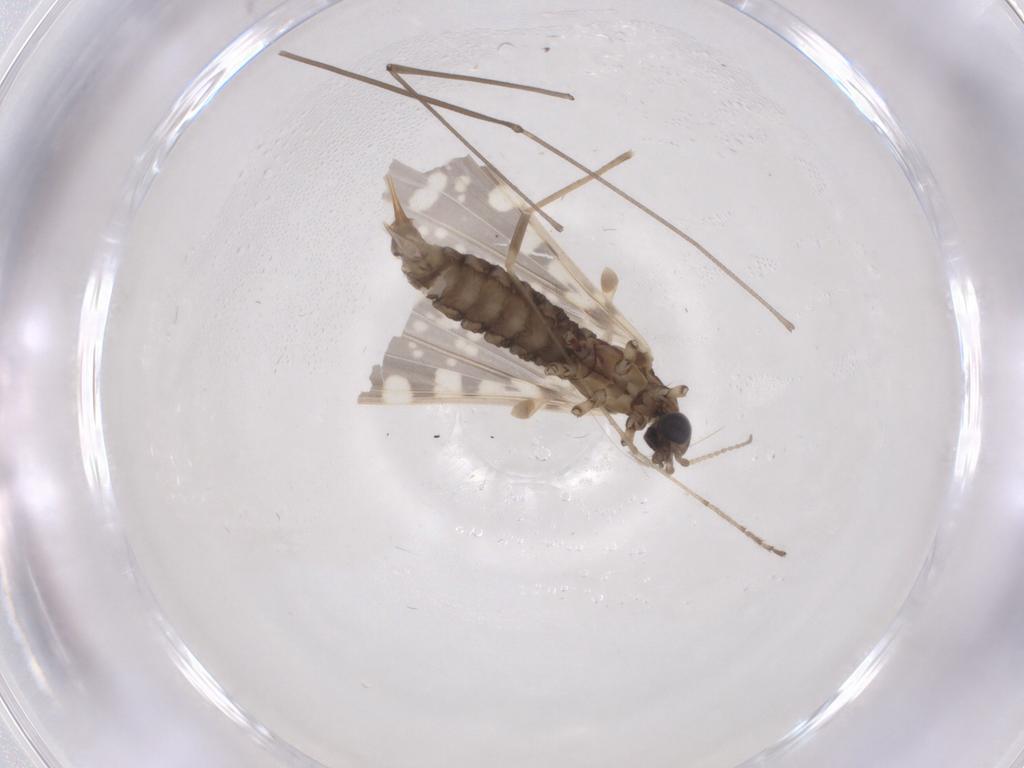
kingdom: Animalia
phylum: Arthropoda
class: Insecta
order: Diptera
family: Limoniidae
